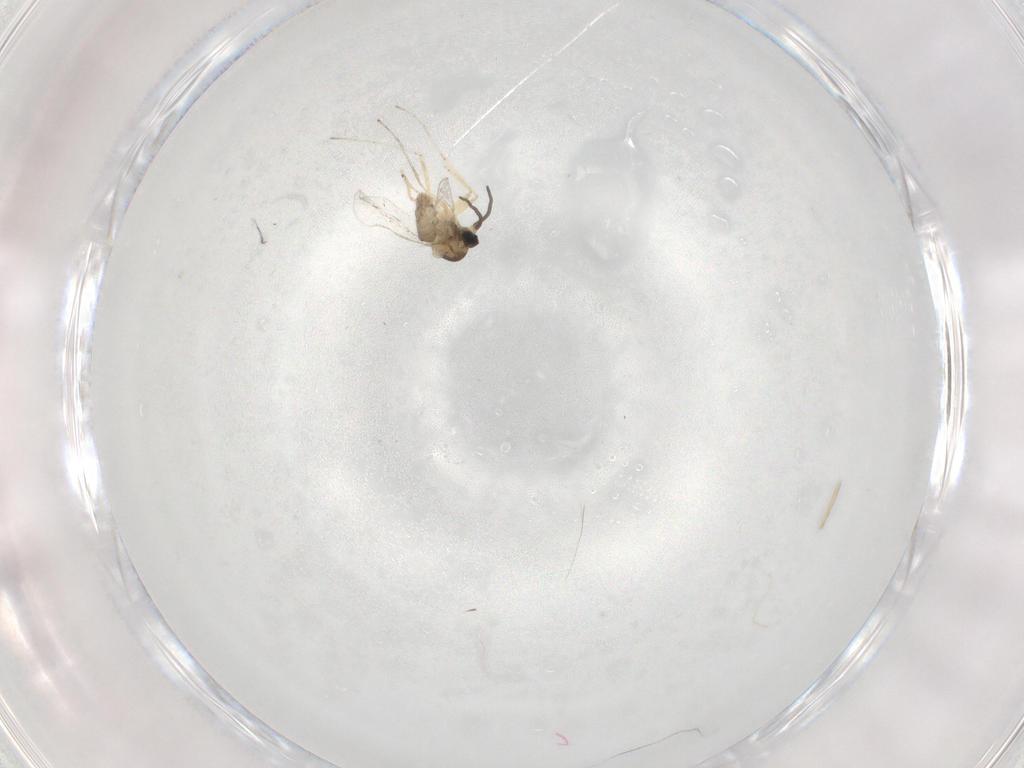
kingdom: Animalia
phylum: Arthropoda
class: Insecta
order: Diptera
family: Cecidomyiidae
